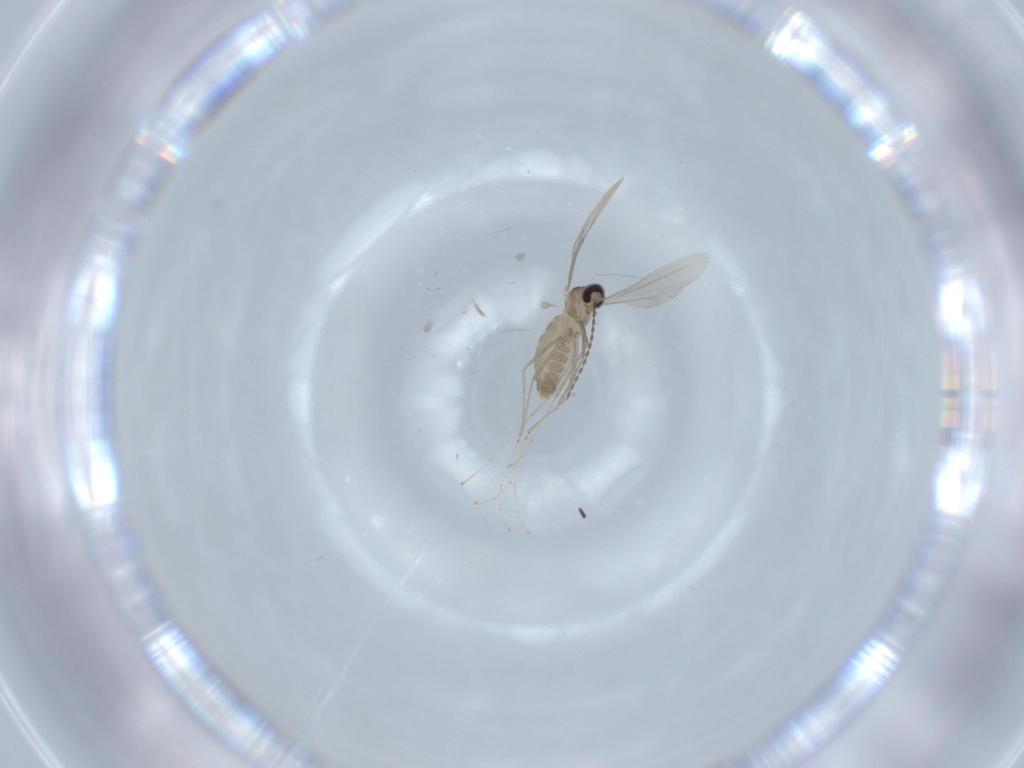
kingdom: Animalia
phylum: Arthropoda
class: Insecta
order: Diptera
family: Cecidomyiidae
